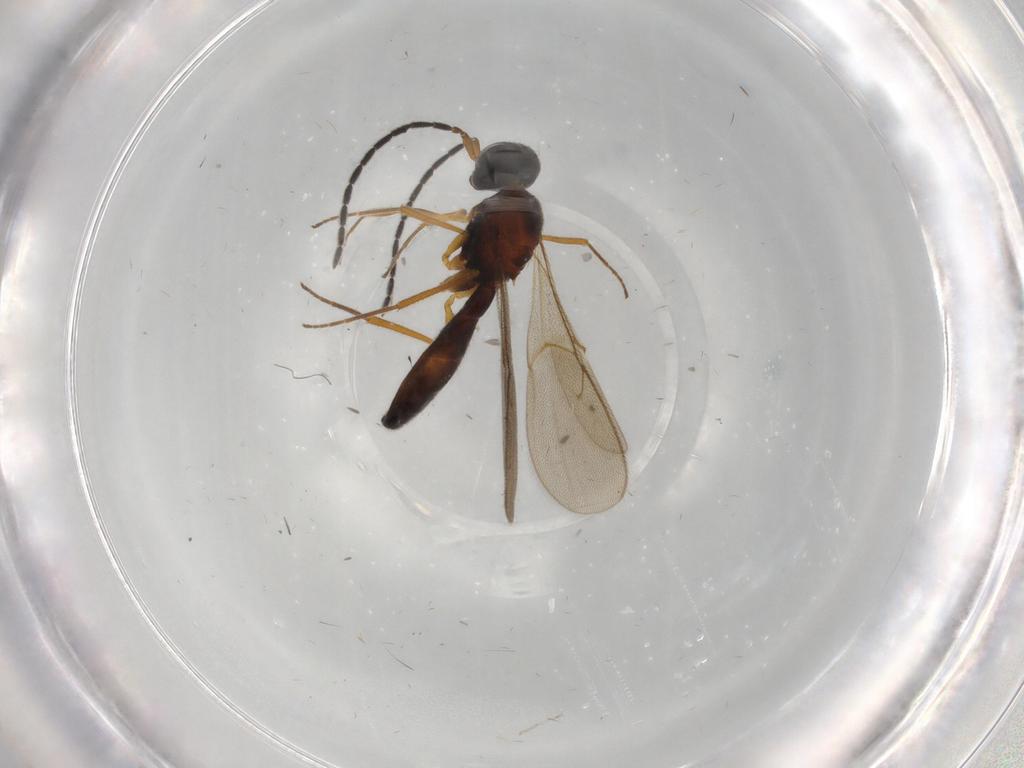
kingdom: Animalia
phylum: Arthropoda
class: Insecta
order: Hymenoptera
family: Scelionidae
